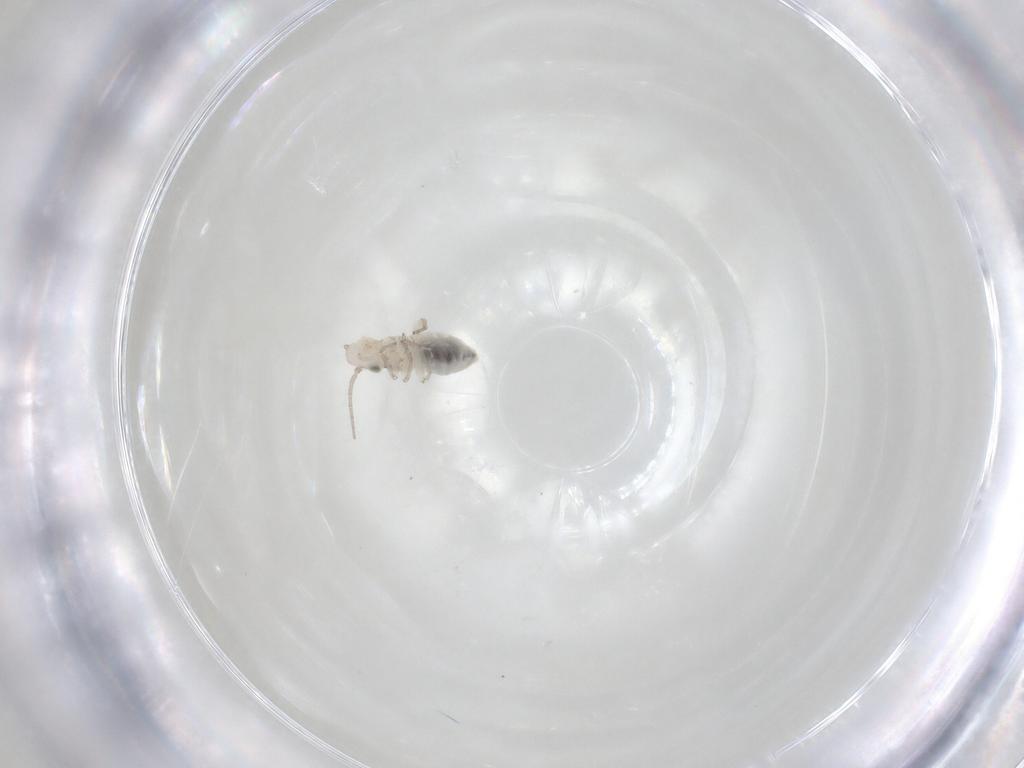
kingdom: Animalia
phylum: Arthropoda
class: Insecta
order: Psocodea
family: Caeciliusidae
